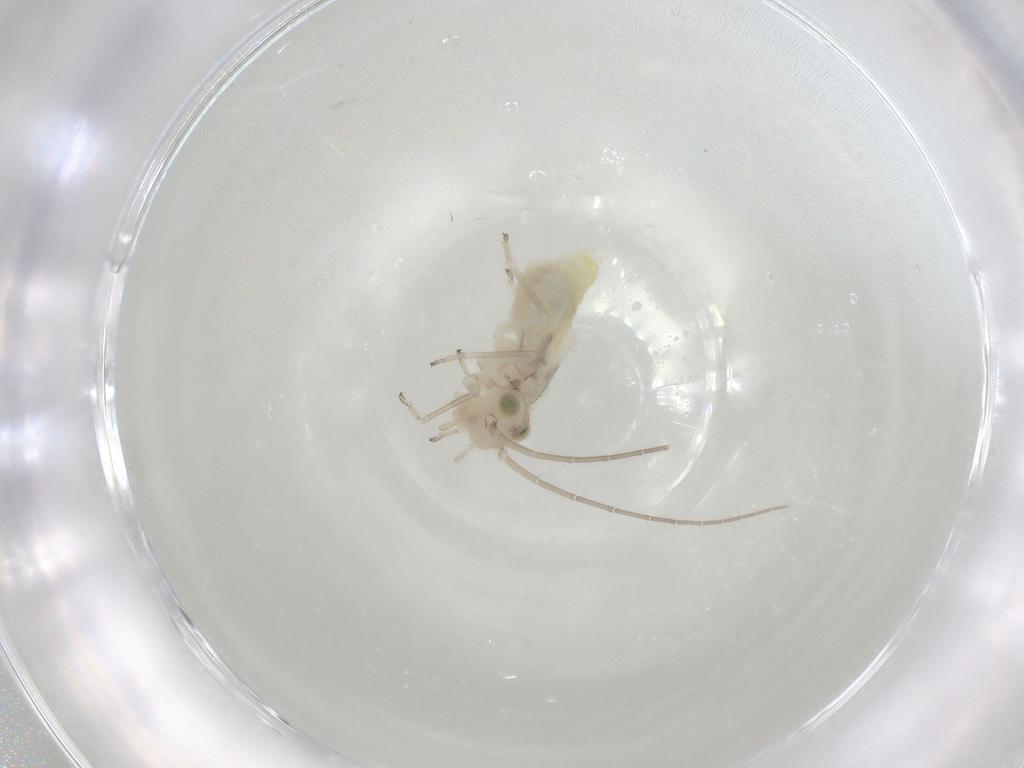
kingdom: Animalia
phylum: Arthropoda
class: Insecta
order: Psocodea
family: Caeciliusidae
